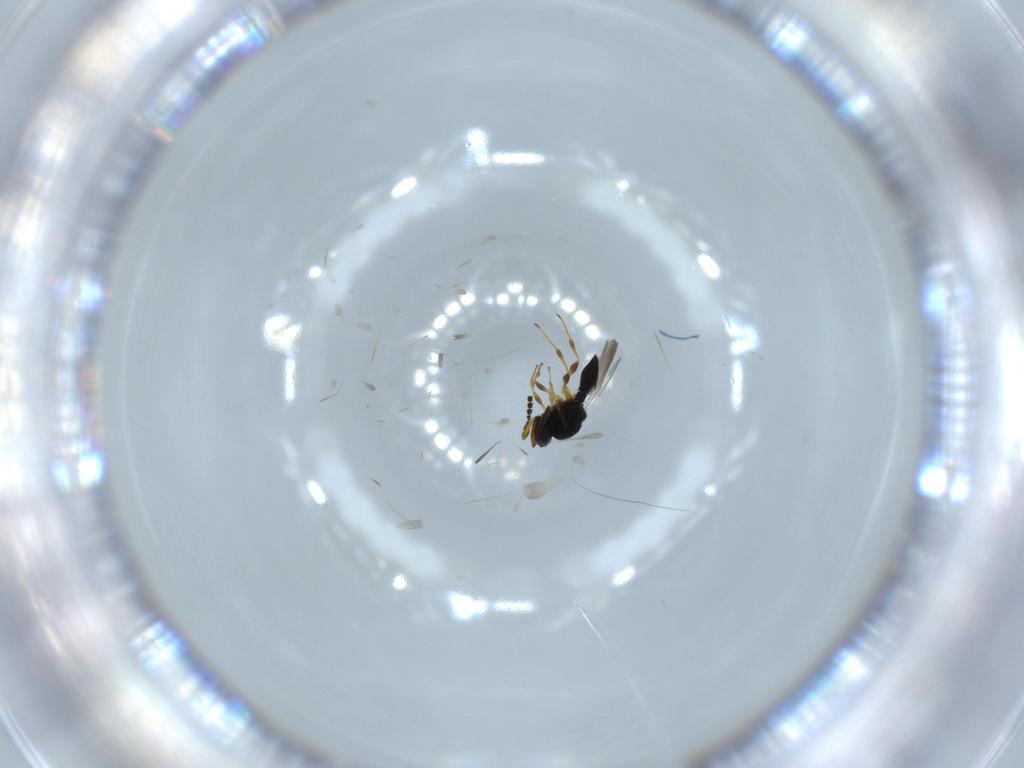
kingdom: Animalia
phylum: Arthropoda
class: Insecta
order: Hymenoptera
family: Platygastridae
